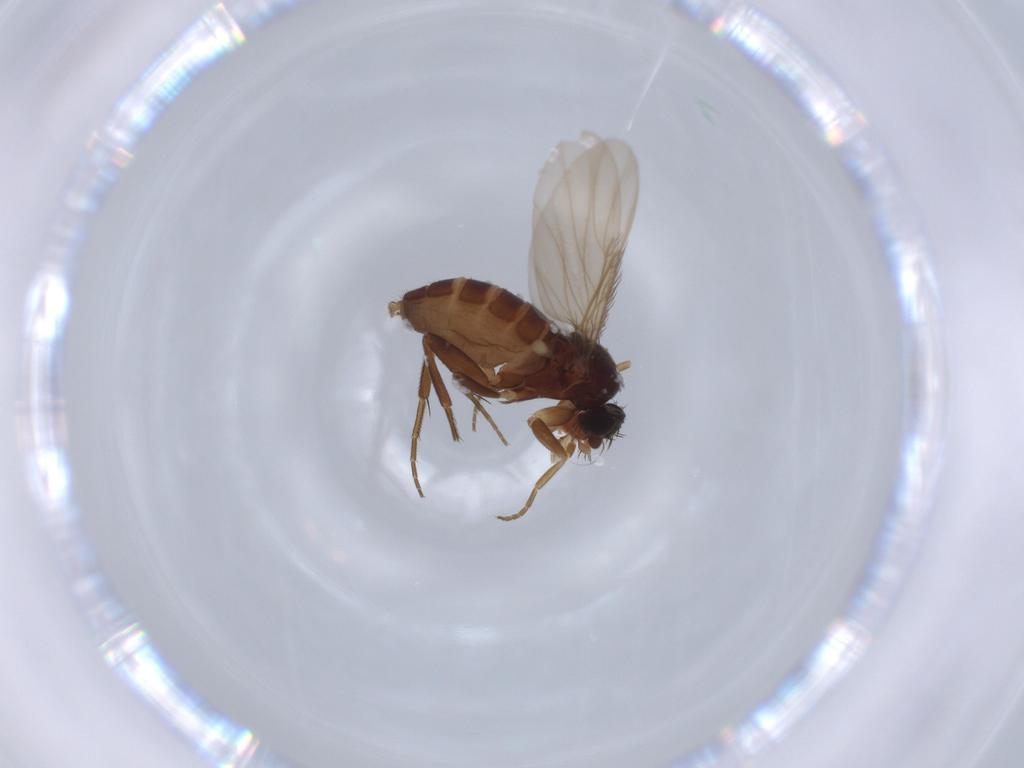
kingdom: Animalia
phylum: Arthropoda
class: Insecta
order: Diptera
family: Phoridae
